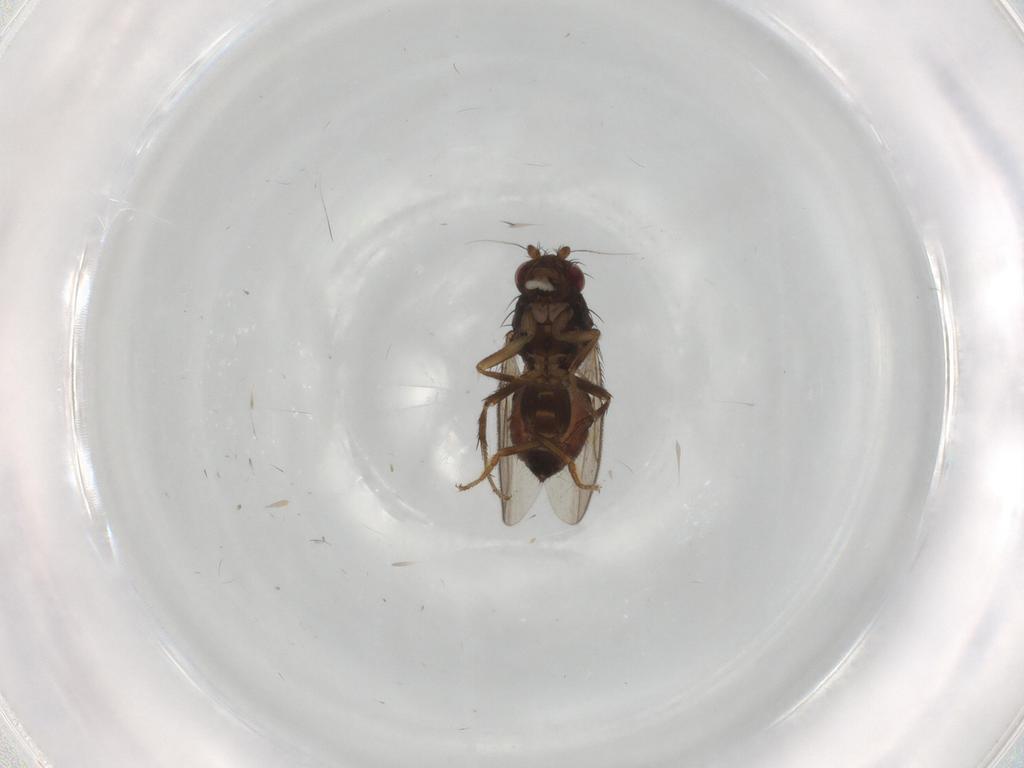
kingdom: Animalia
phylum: Arthropoda
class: Insecta
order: Diptera
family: Sphaeroceridae
